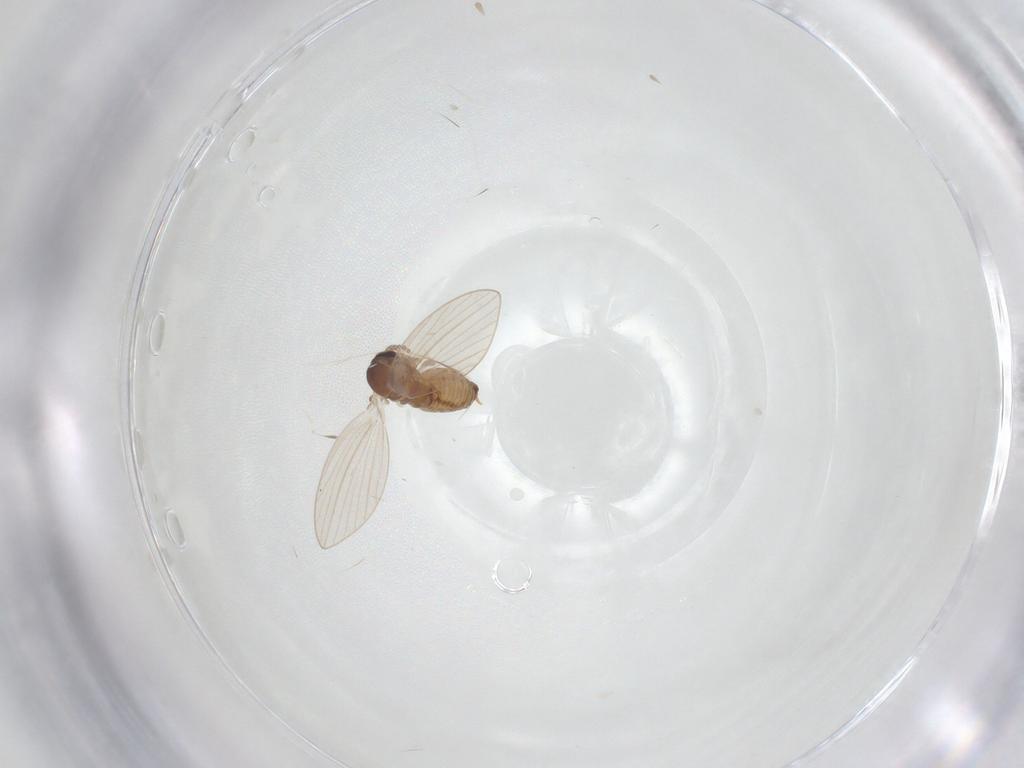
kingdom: Animalia
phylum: Arthropoda
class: Insecta
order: Diptera
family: Psychodidae
